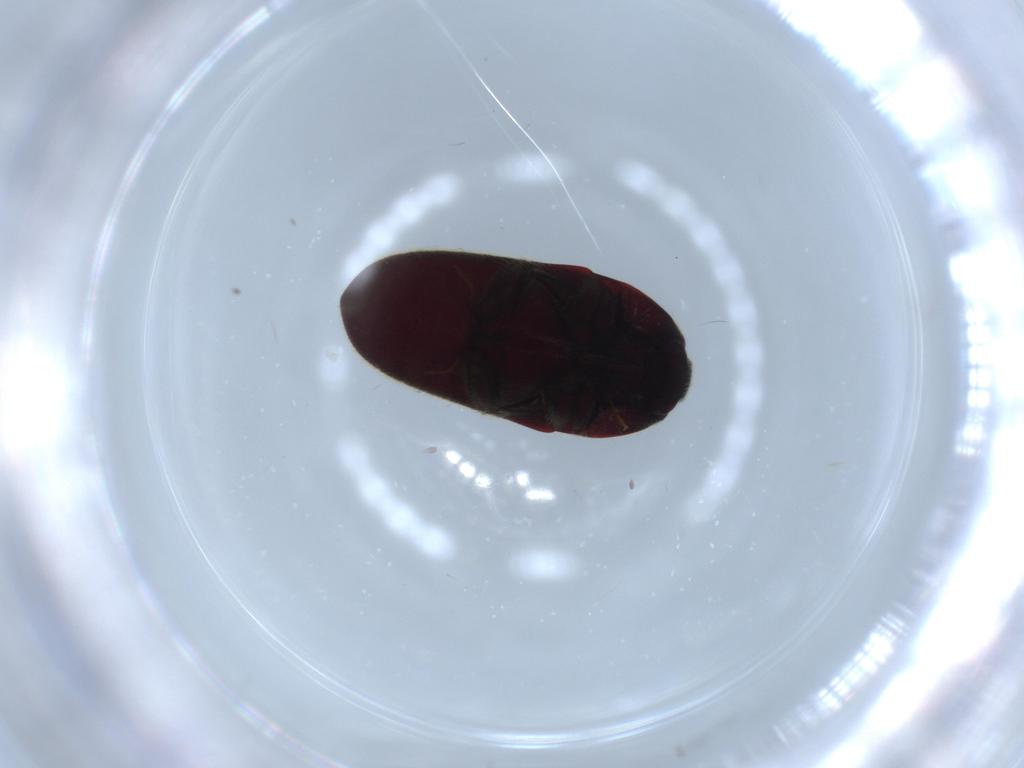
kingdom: Animalia
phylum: Arthropoda
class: Insecta
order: Coleoptera
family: Throscidae
